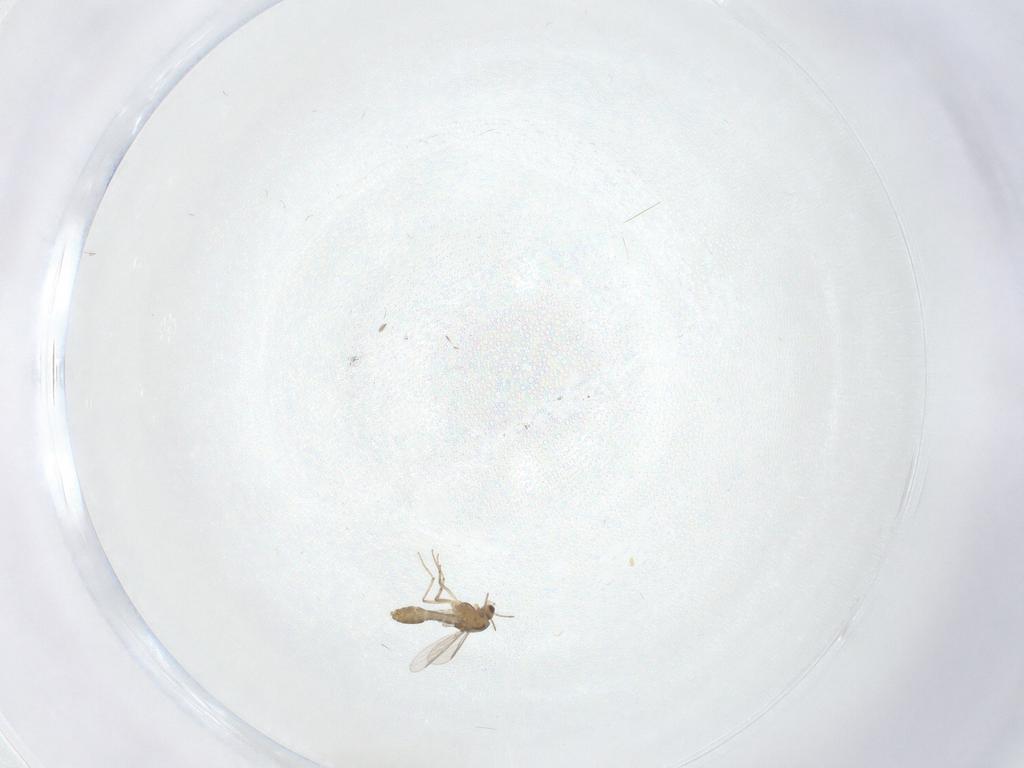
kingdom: Animalia
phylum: Arthropoda
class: Insecta
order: Diptera
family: Chironomidae
